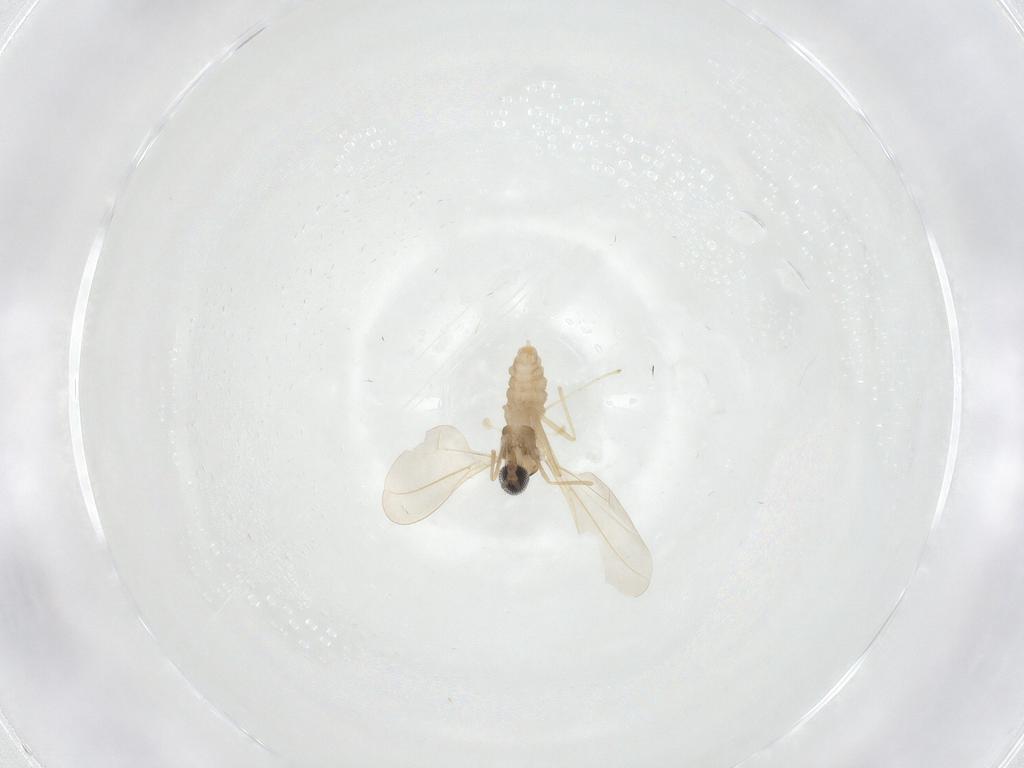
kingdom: Animalia
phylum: Arthropoda
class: Insecta
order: Diptera
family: Cecidomyiidae
